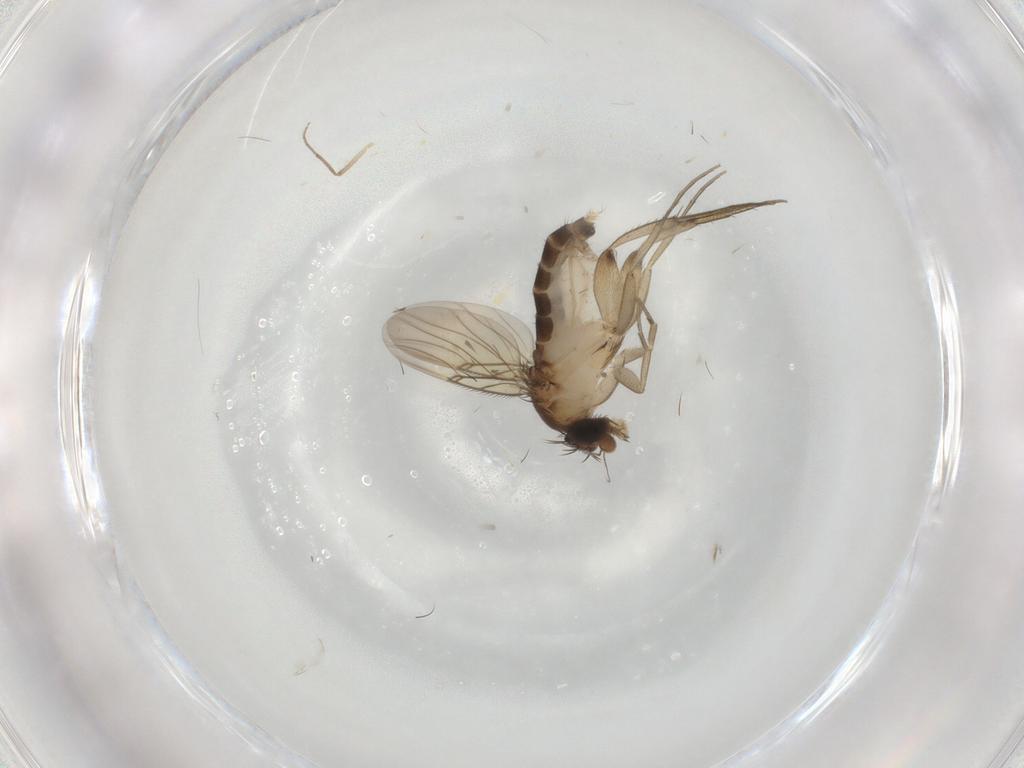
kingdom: Animalia
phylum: Arthropoda
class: Insecta
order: Diptera
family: Phoridae
